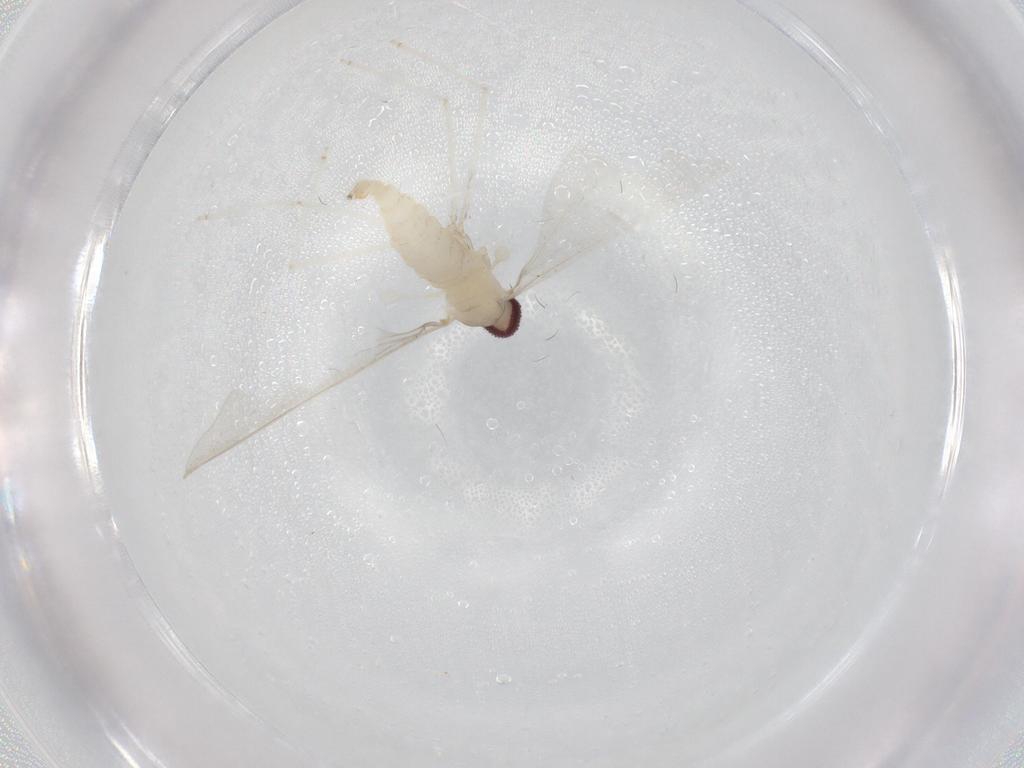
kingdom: Animalia
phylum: Arthropoda
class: Insecta
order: Diptera
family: Cecidomyiidae
